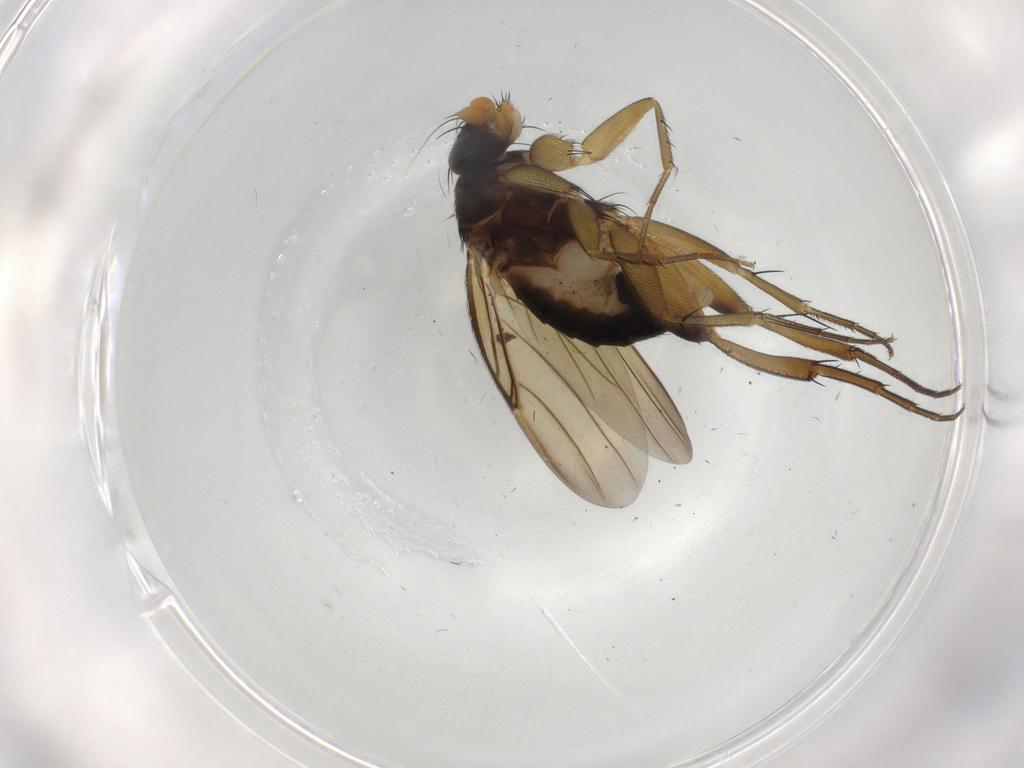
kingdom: Animalia
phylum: Arthropoda
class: Insecta
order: Diptera
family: Phoridae
